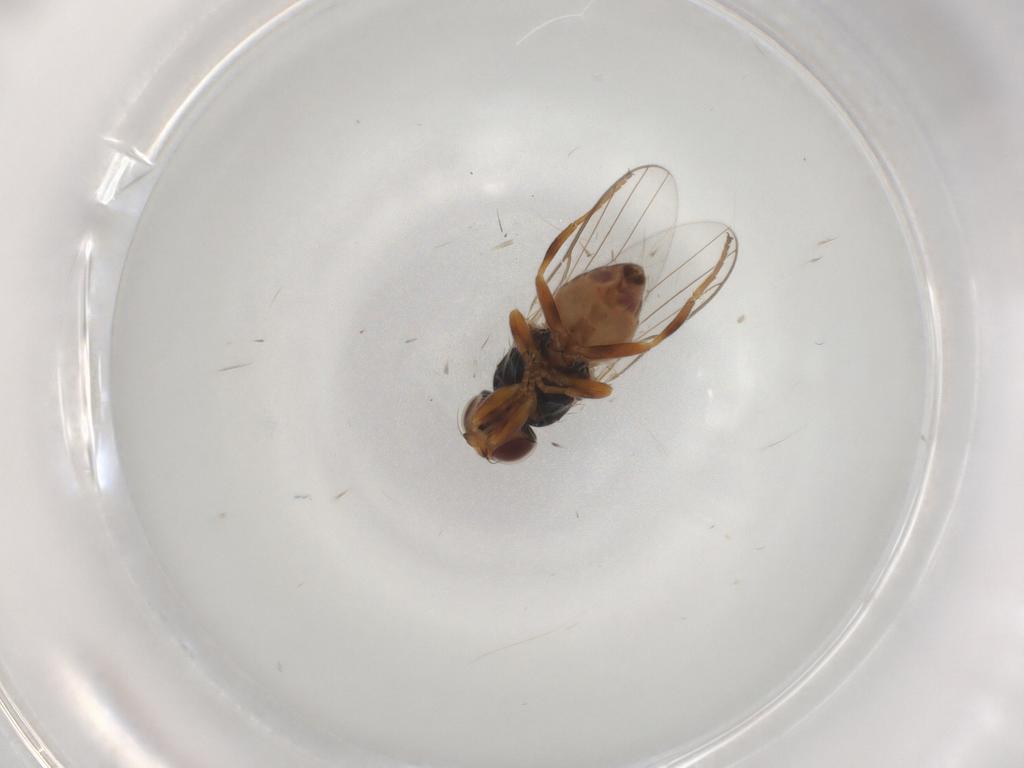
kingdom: Animalia
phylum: Arthropoda
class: Insecta
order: Diptera
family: Chloropidae
